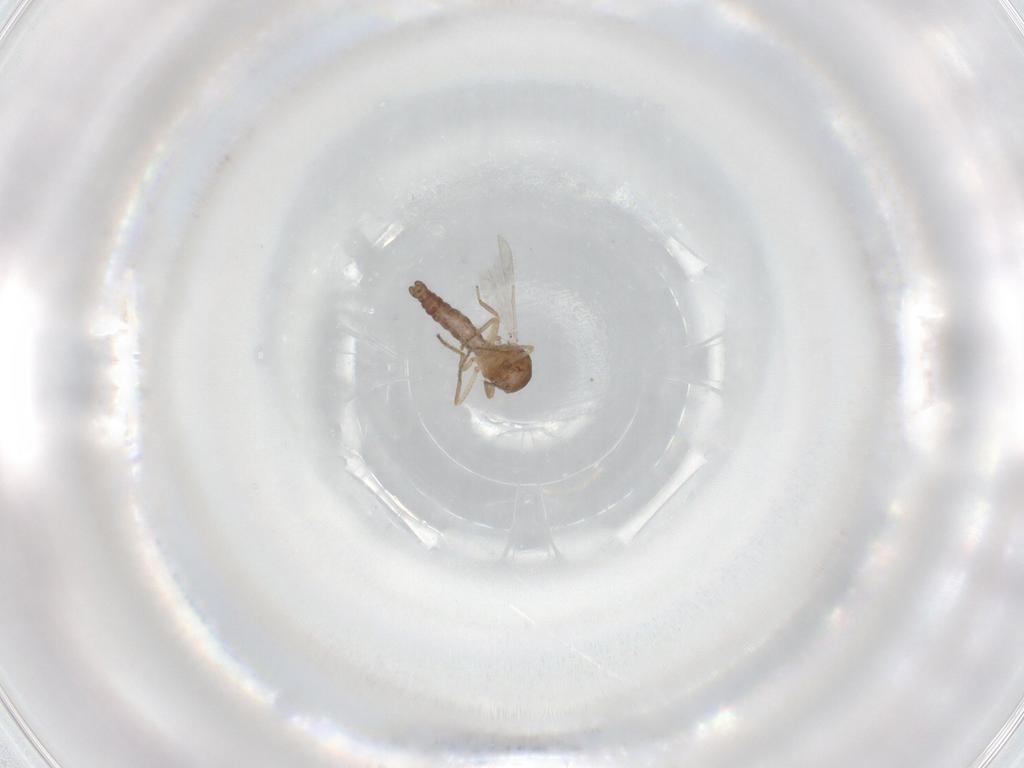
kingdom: Animalia
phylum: Arthropoda
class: Insecta
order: Diptera
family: Ceratopogonidae
